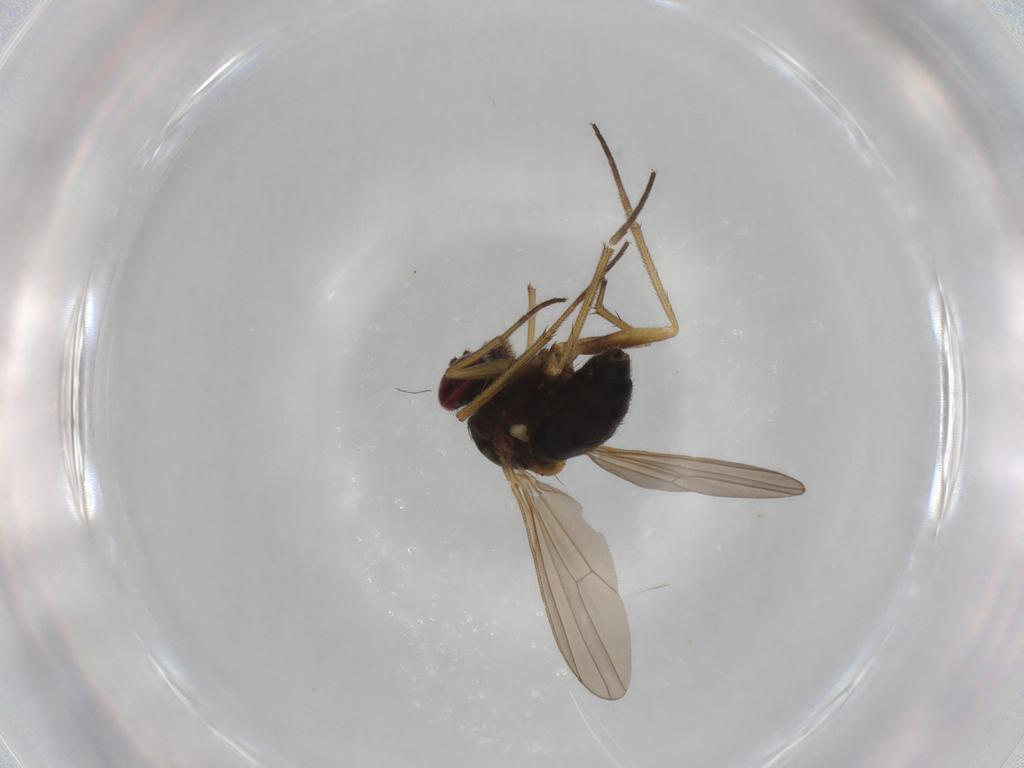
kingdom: Animalia
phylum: Arthropoda
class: Insecta
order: Diptera
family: Cecidomyiidae
